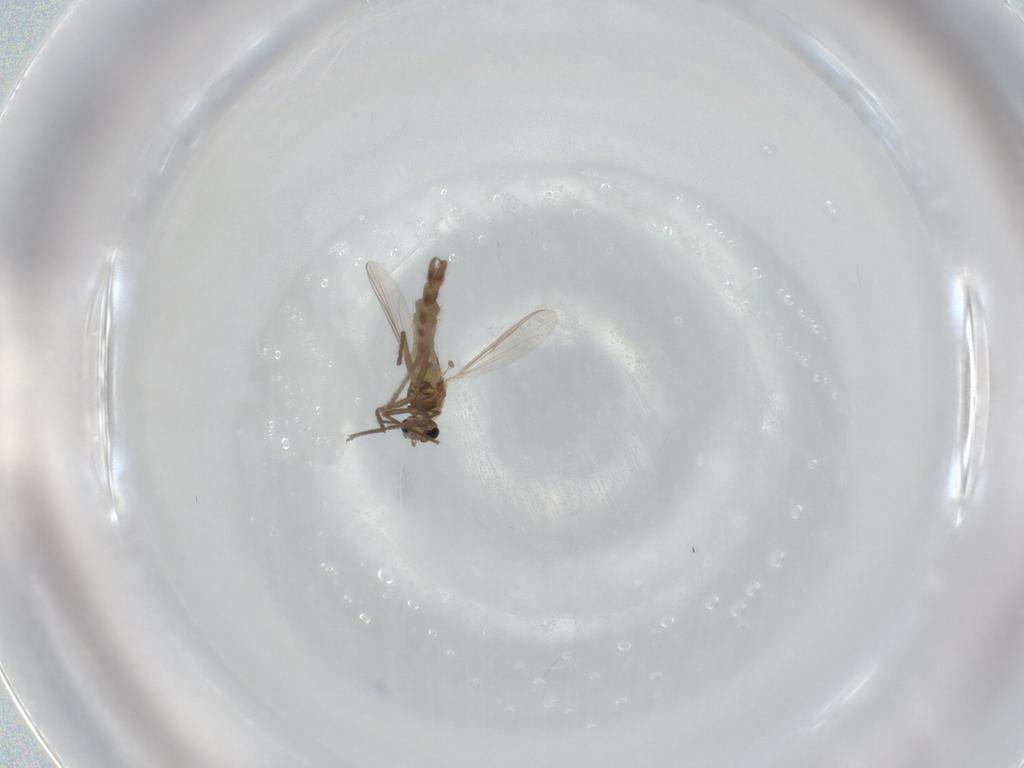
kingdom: Animalia
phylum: Arthropoda
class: Insecta
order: Diptera
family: Chironomidae
